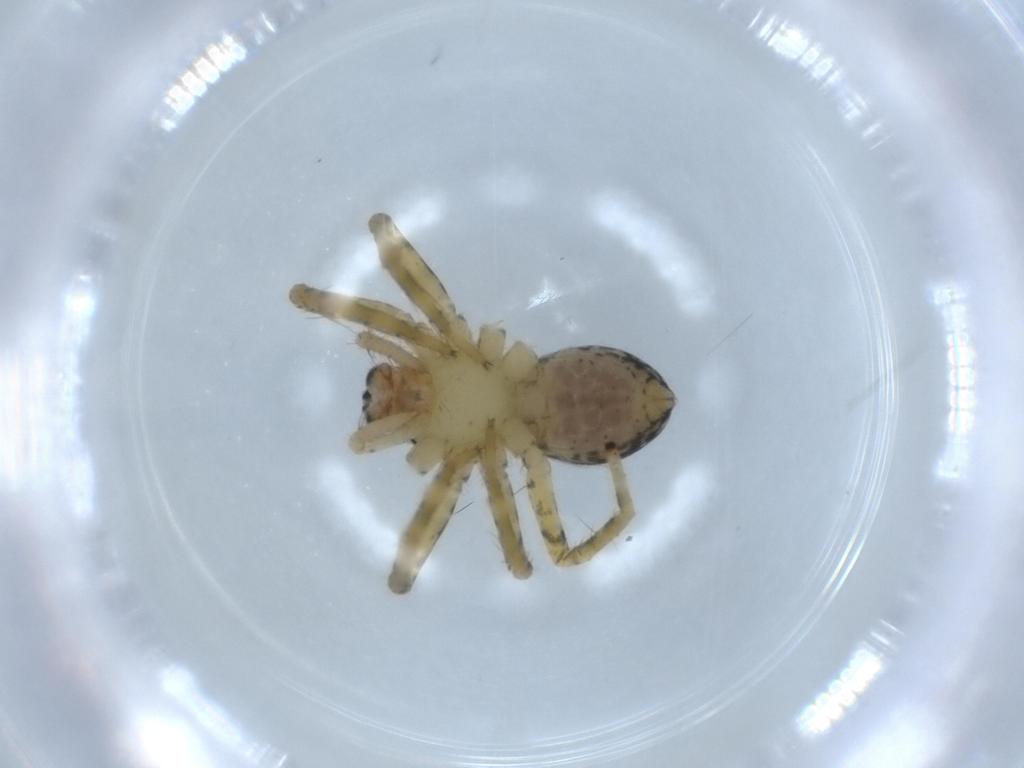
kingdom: Animalia
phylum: Arthropoda
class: Arachnida
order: Araneae
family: Ctenidae
